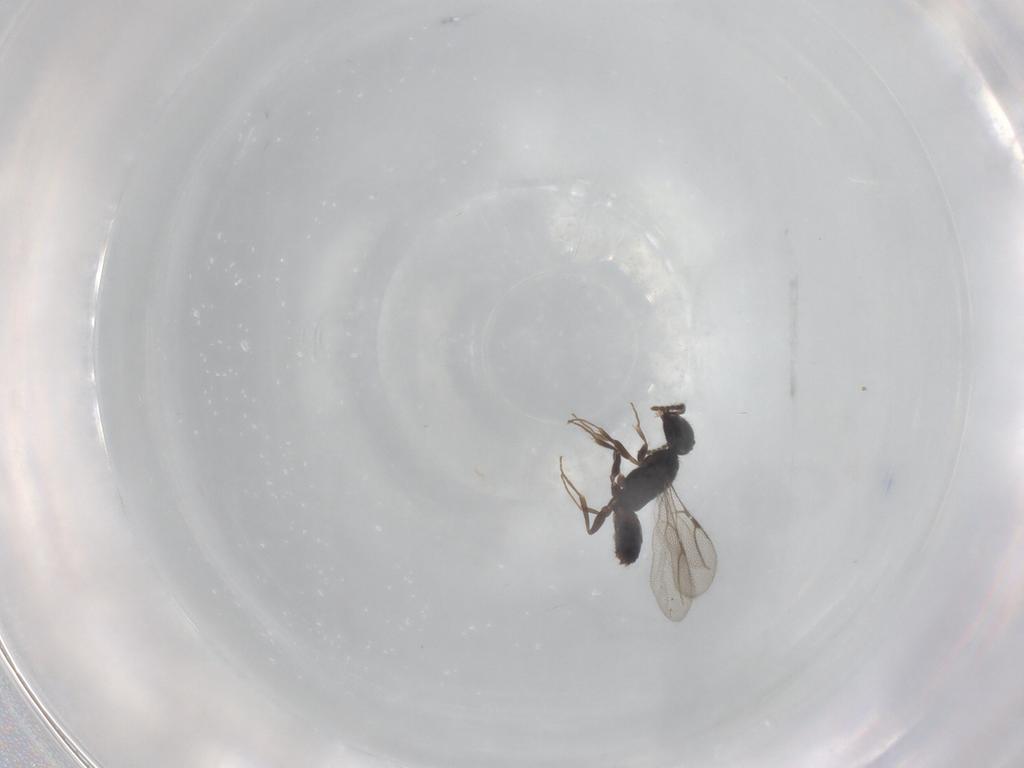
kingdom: Animalia
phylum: Arthropoda
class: Insecta
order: Hymenoptera
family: Bethylidae
